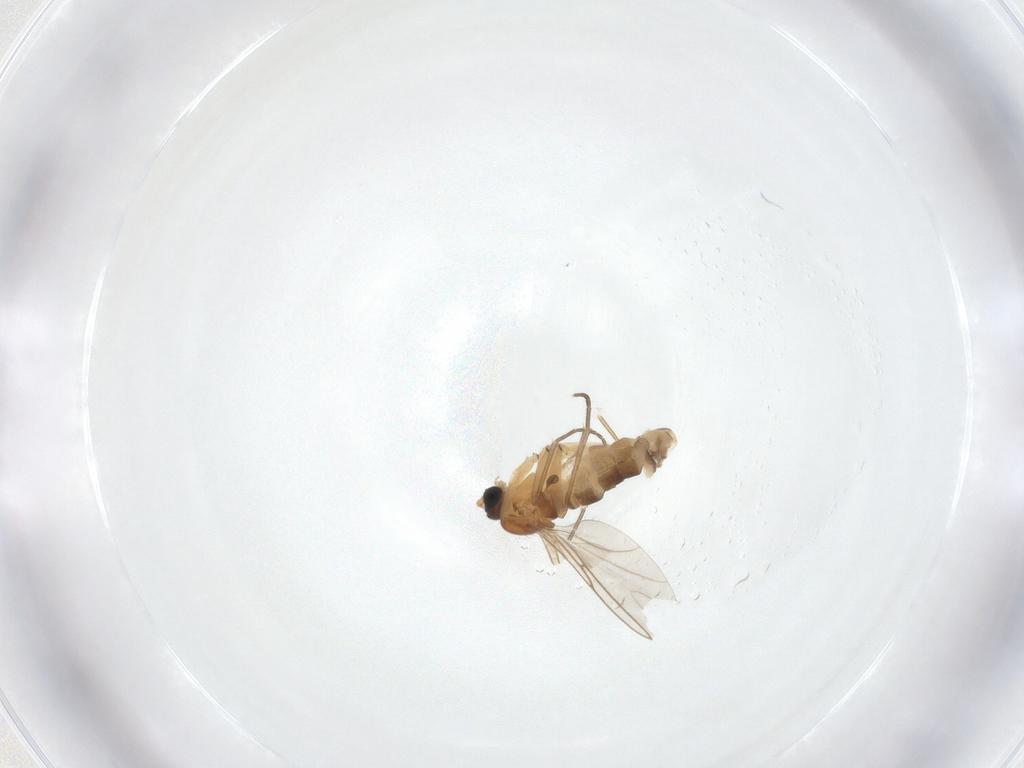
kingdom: Animalia
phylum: Arthropoda
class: Insecta
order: Diptera
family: Sciaridae
